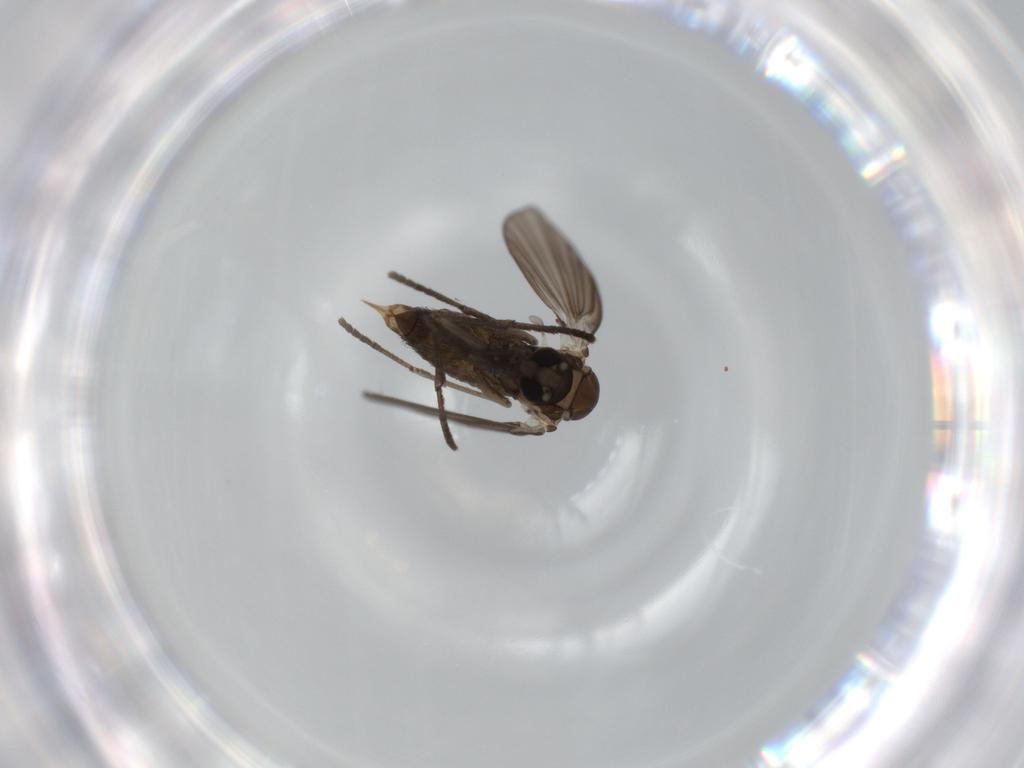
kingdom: Animalia
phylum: Arthropoda
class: Insecta
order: Diptera
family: Psychodidae
